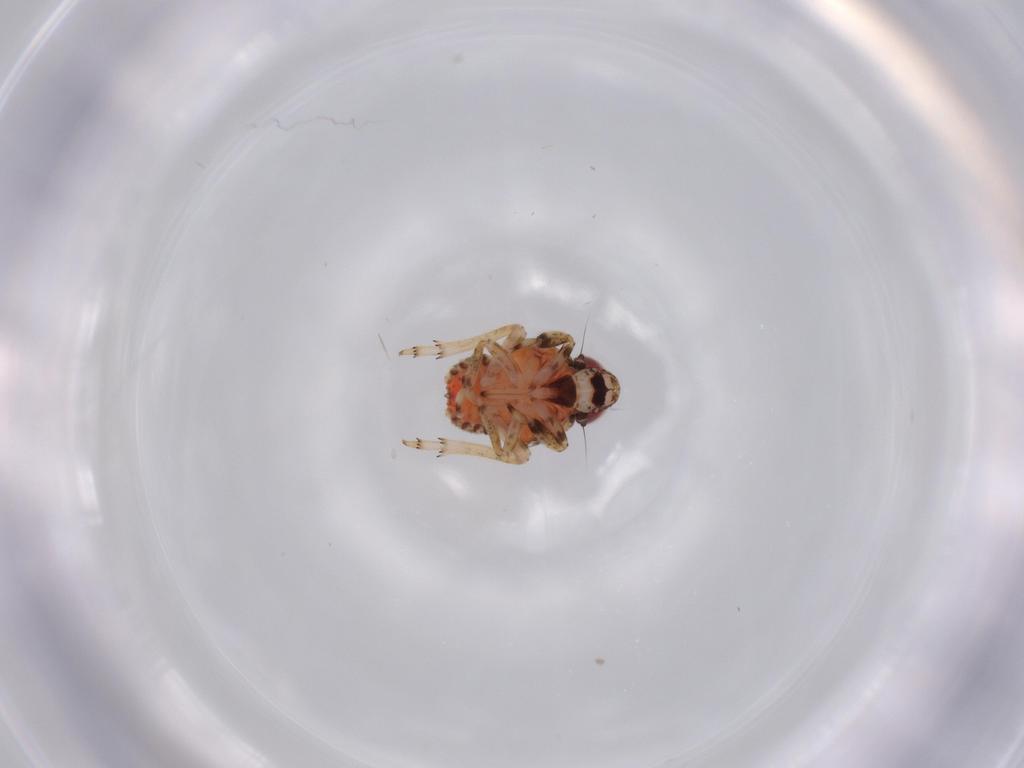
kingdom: Animalia
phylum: Arthropoda
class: Insecta
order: Hemiptera
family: Issidae
